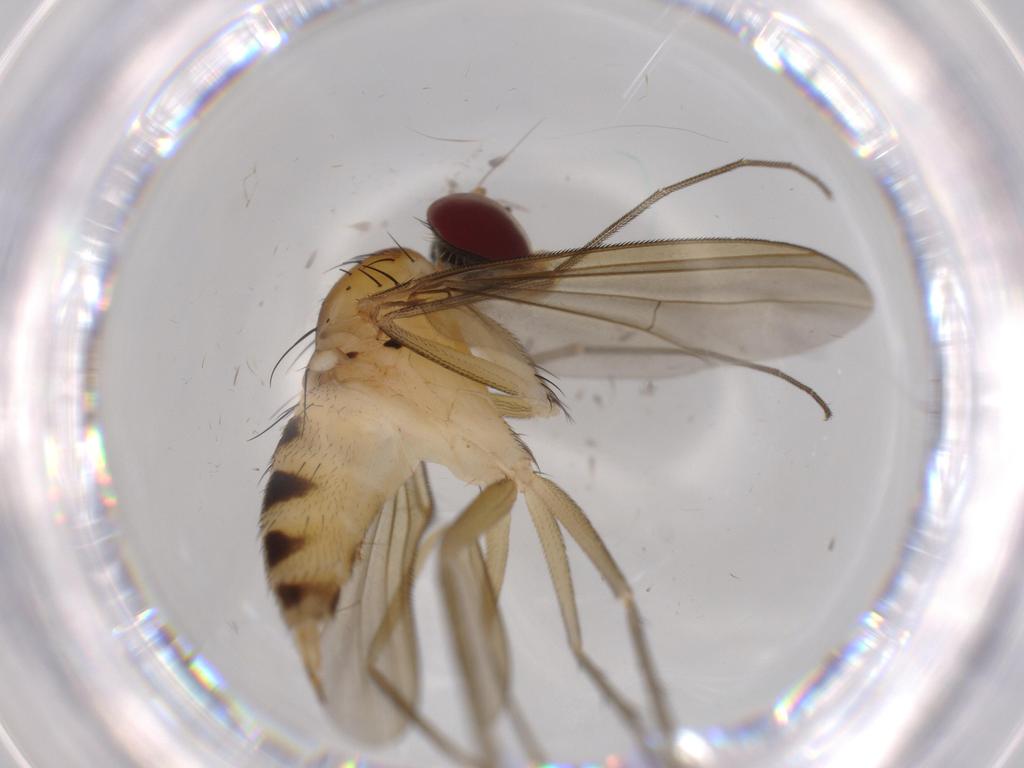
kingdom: Animalia
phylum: Arthropoda
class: Insecta
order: Diptera
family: Dolichopodidae
